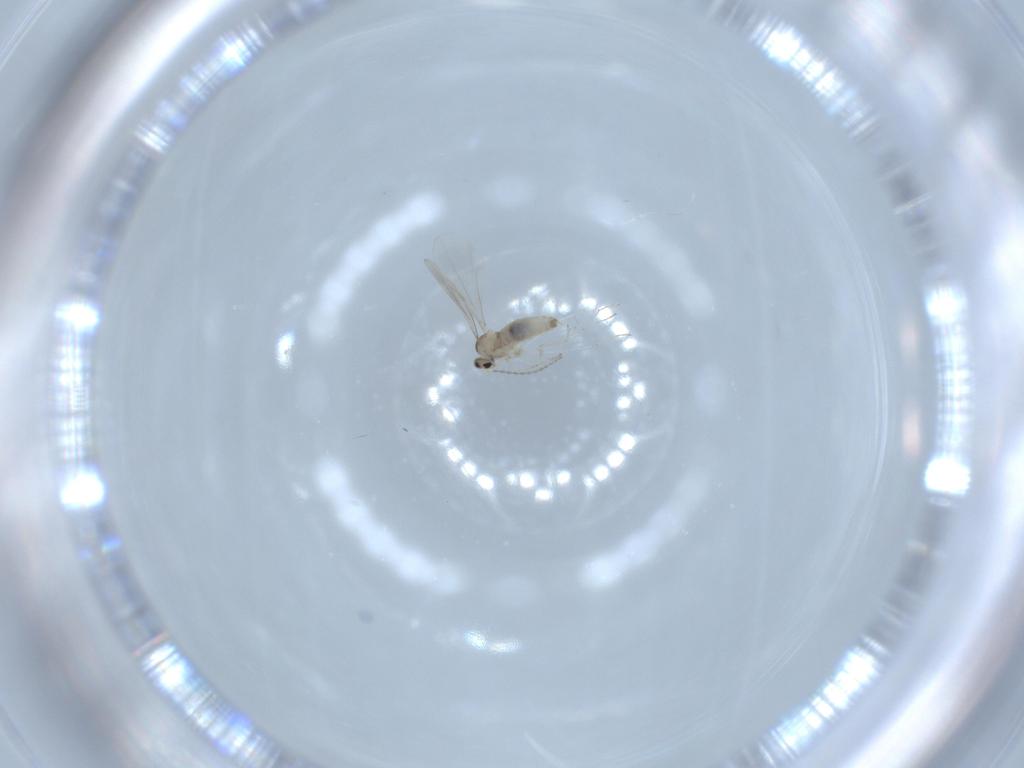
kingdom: Animalia
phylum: Arthropoda
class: Insecta
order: Diptera
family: Cecidomyiidae
